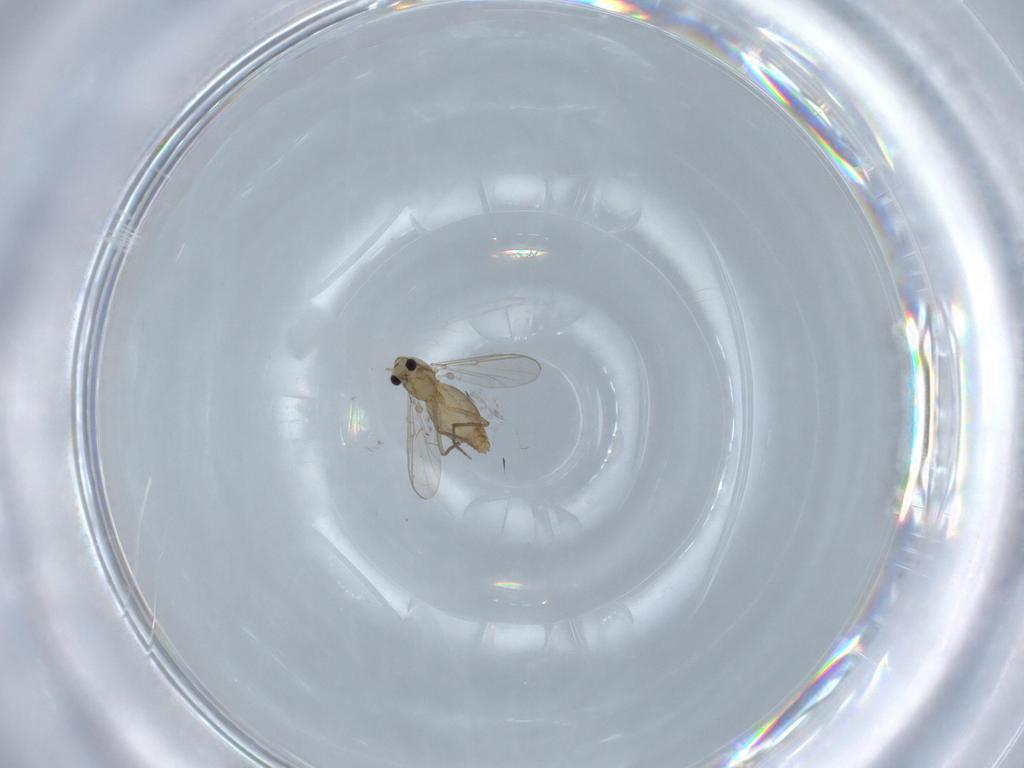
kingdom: Animalia
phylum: Arthropoda
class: Insecta
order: Diptera
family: Chironomidae
